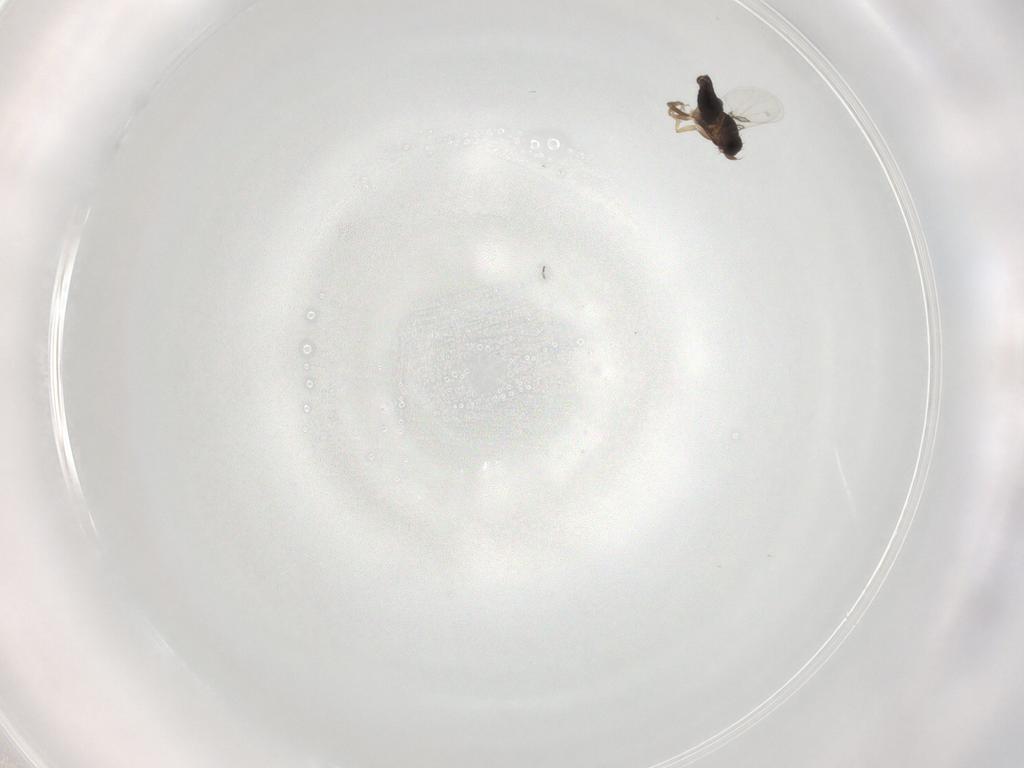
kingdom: Animalia
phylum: Arthropoda
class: Insecta
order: Diptera
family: Phoridae
